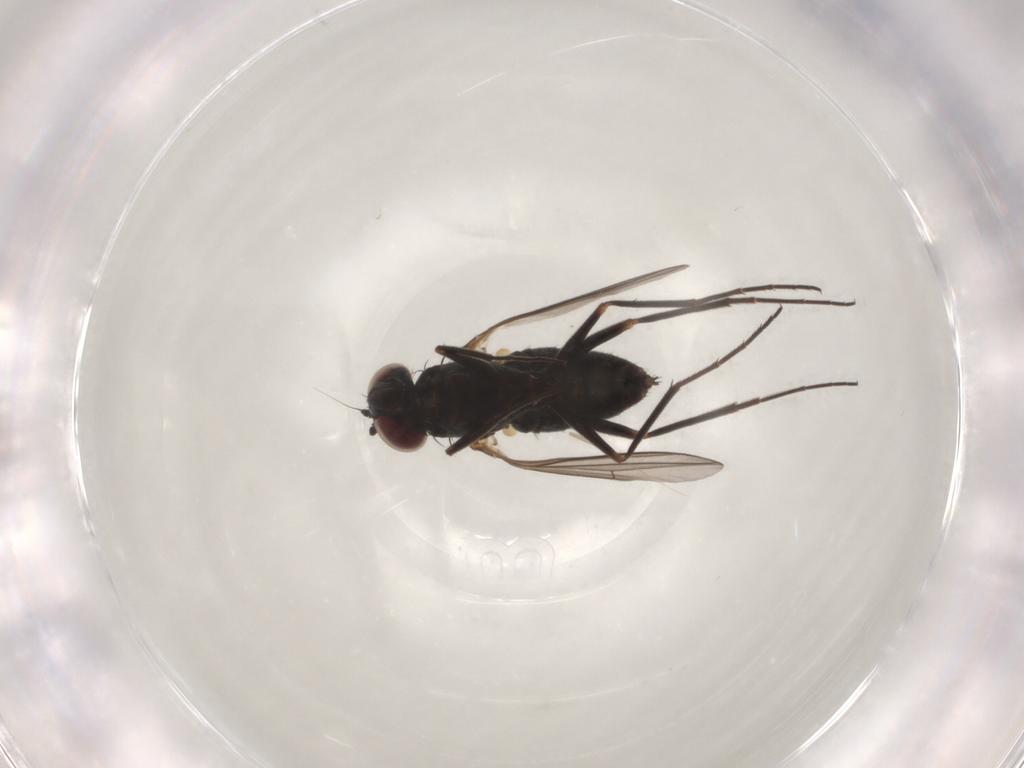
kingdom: Animalia
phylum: Arthropoda
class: Insecta
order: Diptera
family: Dolichopodidae
